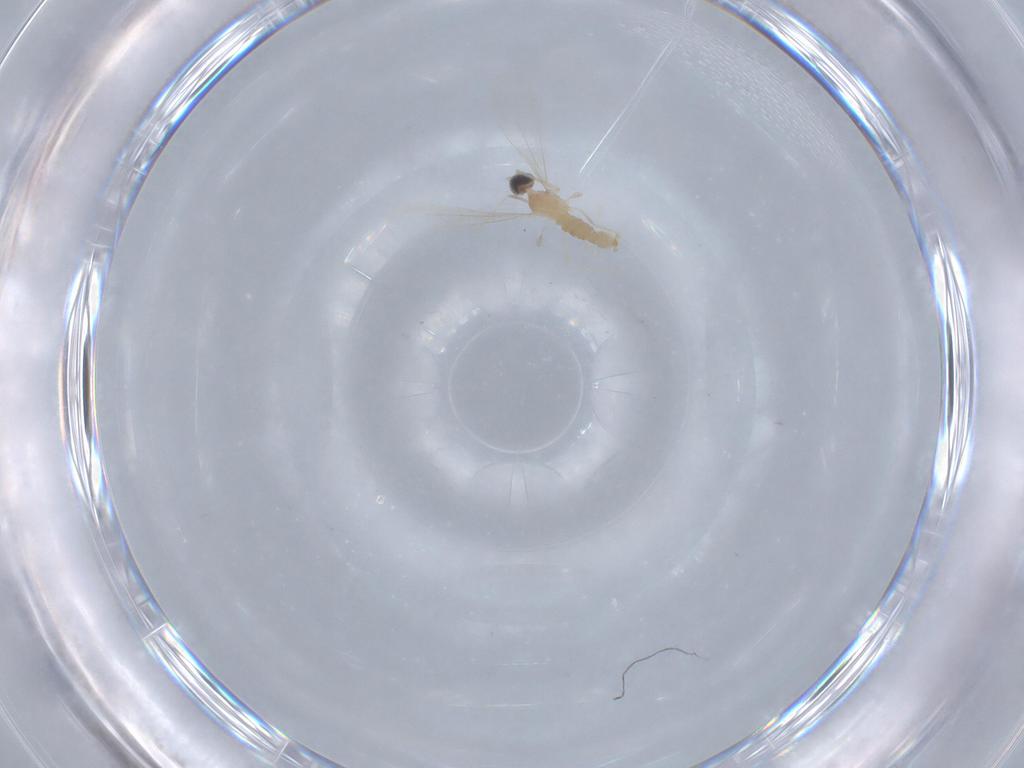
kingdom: Animalia
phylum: Arthropoda
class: Insecta
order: Diptera
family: Cecidomyiidae
